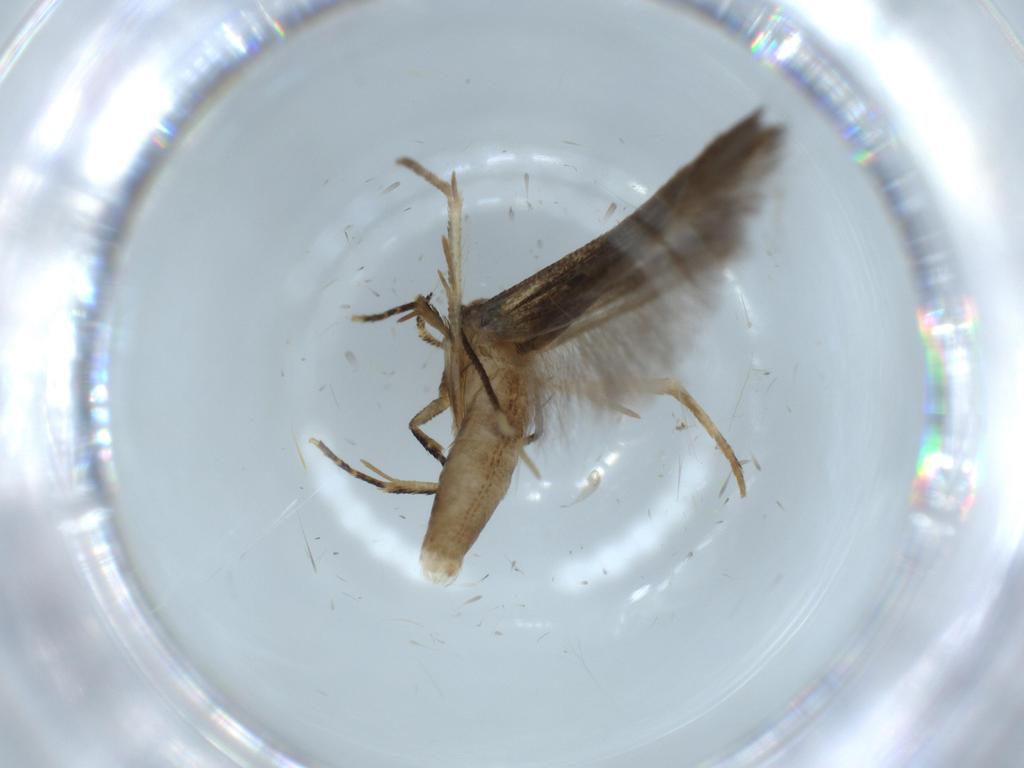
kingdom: Animalia
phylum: Arthropoda
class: Insecta
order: Lepidoptera
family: Gelechiidae
